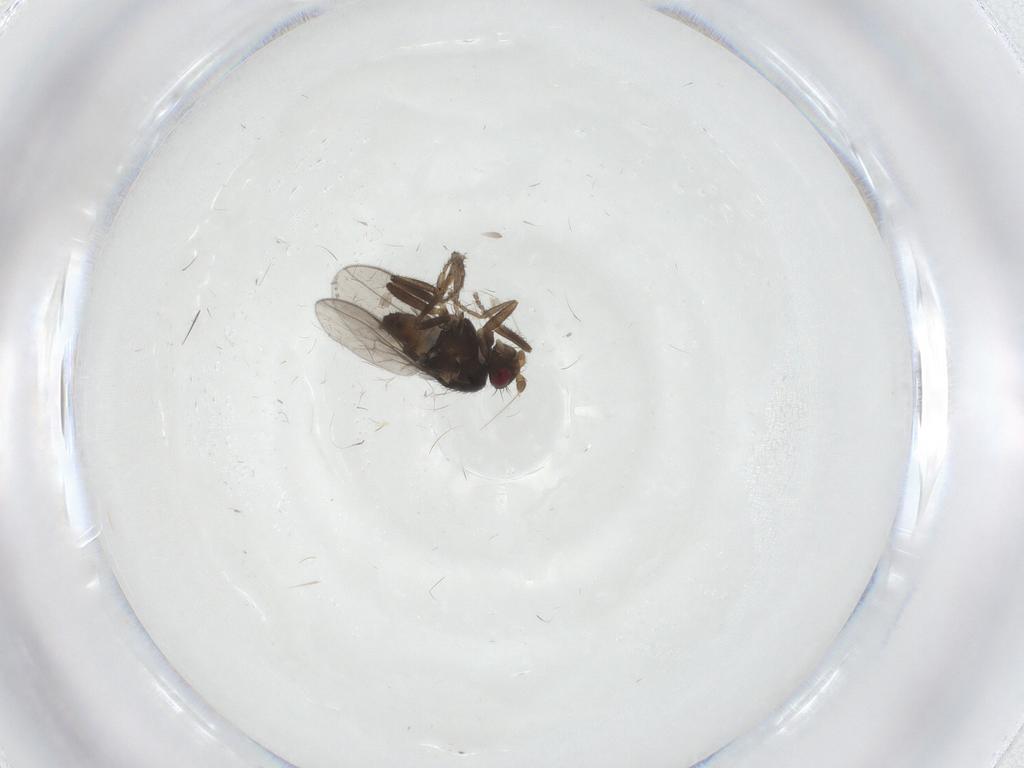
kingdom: Animalia
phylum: Arthropoda
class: Insecta
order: Diptera
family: Sphaeroceridae
